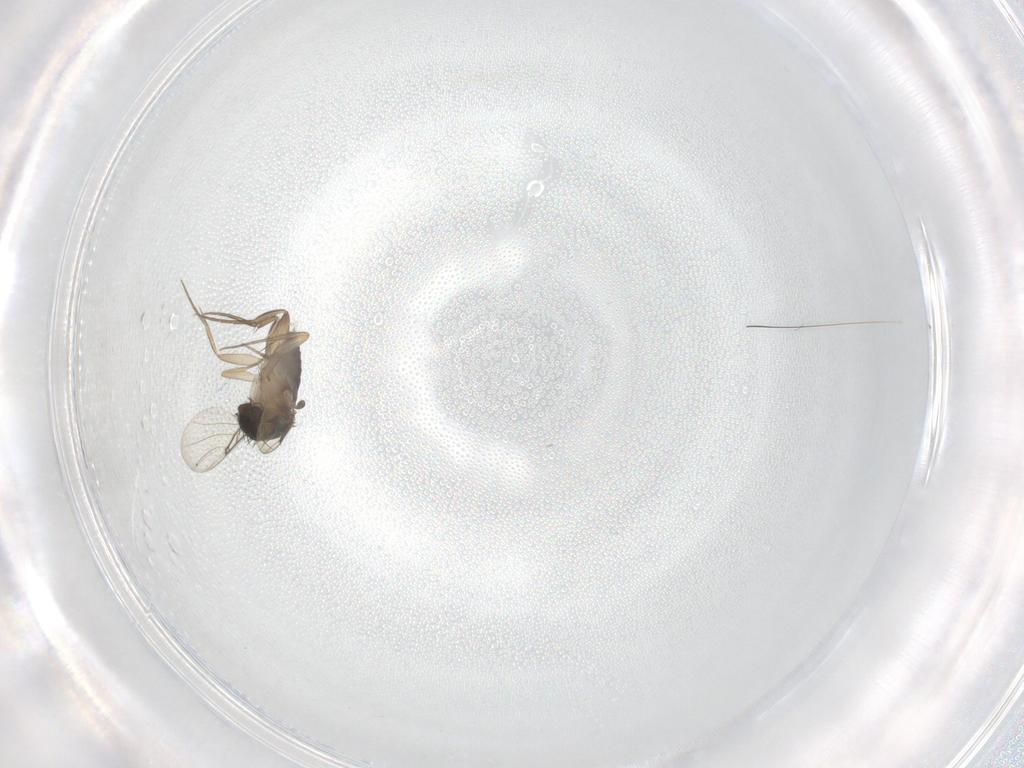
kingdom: Animalia
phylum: Arthropoda
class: Insecta
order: Diptera
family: Phoridae
